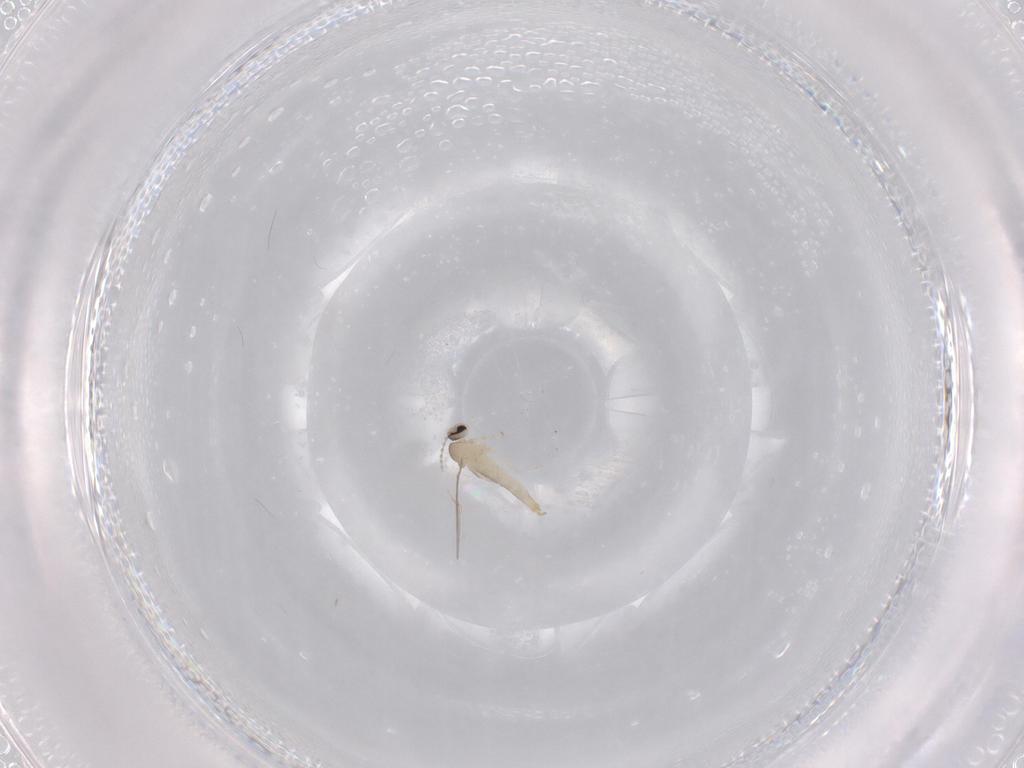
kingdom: Animalia
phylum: Arthropoda
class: Insecta
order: Diptera
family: Cecidomyiidae
